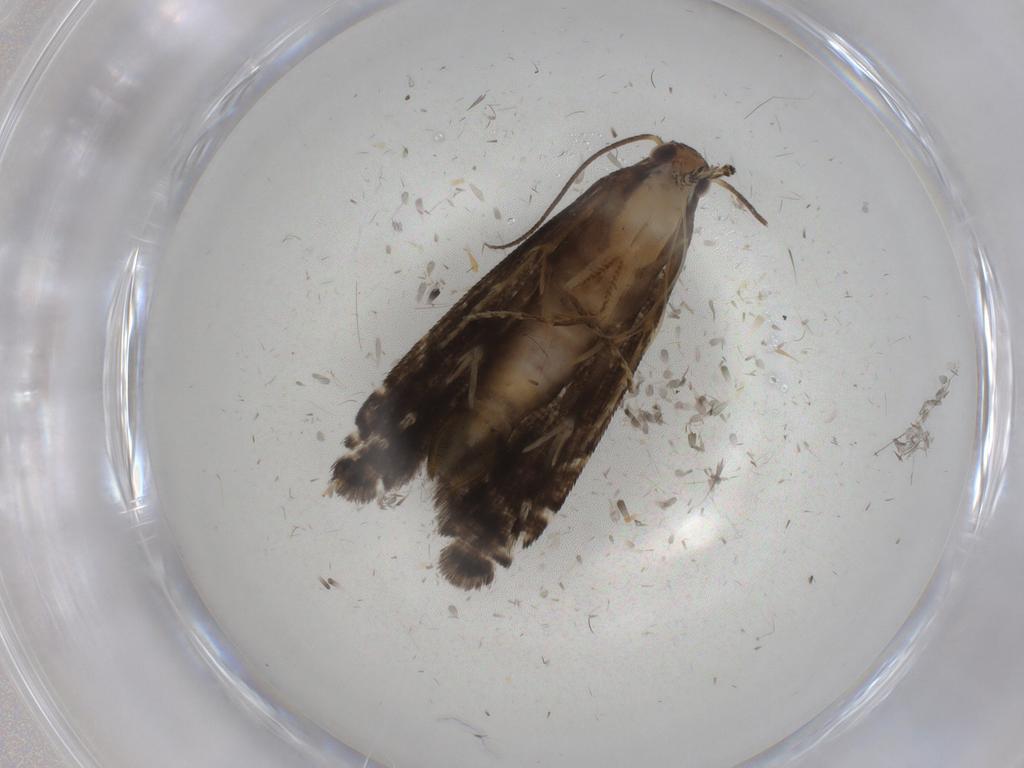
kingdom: Animalia
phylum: Arthropoda
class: Insecta
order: Lepidoptera
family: Glyphipterigidae
